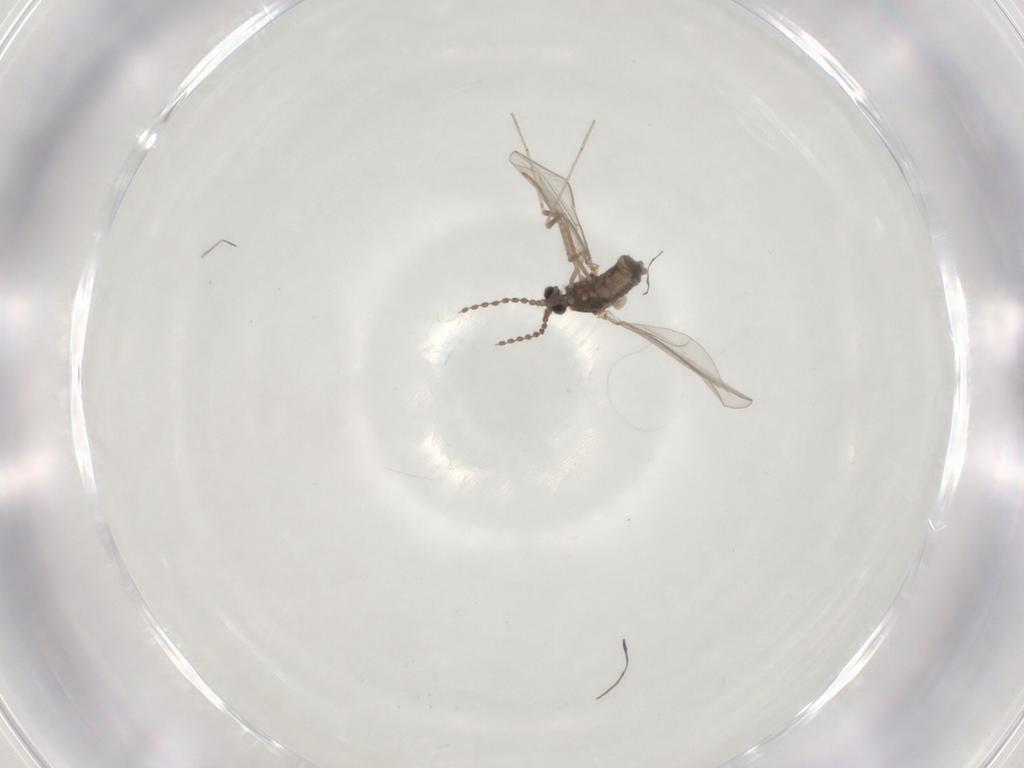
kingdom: Animalia
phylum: Arthropoda
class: Insecta
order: Diptera
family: Cecidomyiidae
